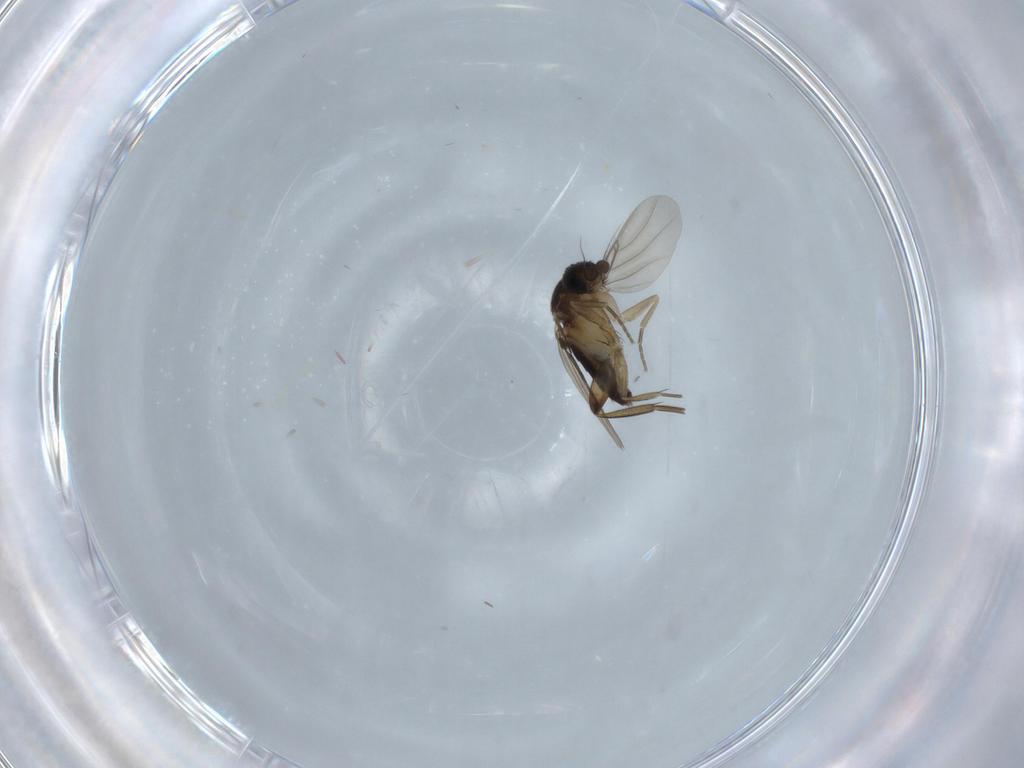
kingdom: Animalia
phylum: Arthropoda
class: Insecta
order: Diptera
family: Phoridae
